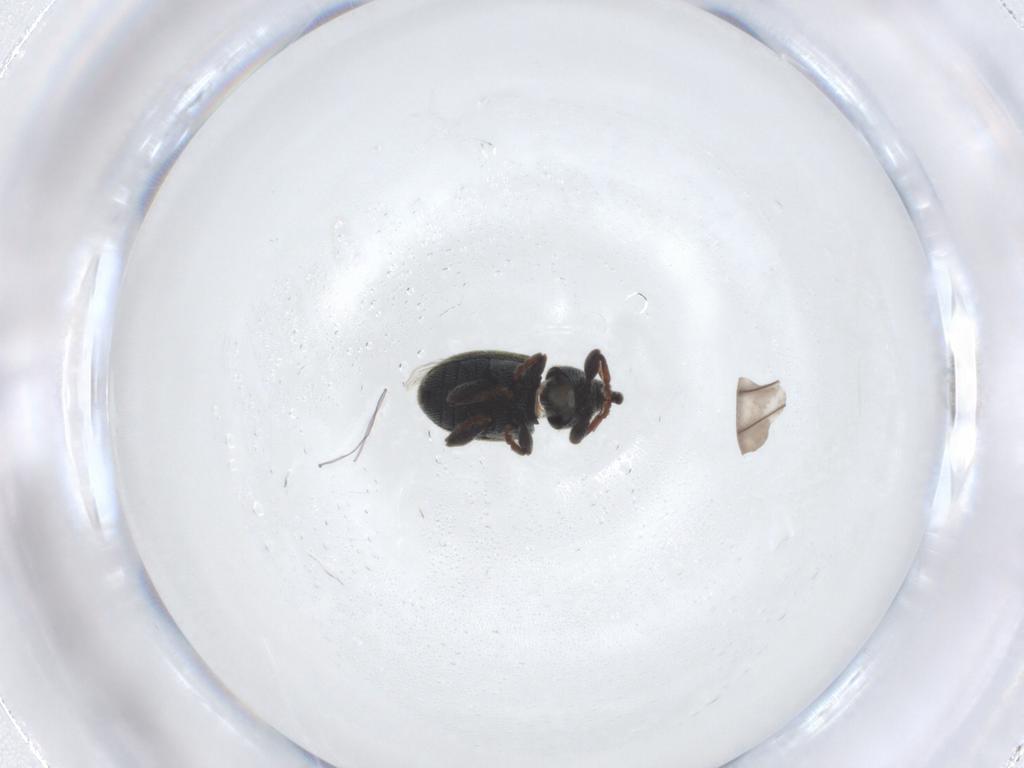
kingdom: Animalia
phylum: Arthropoda
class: Insecta
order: Coleoptera
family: Curculionidae
